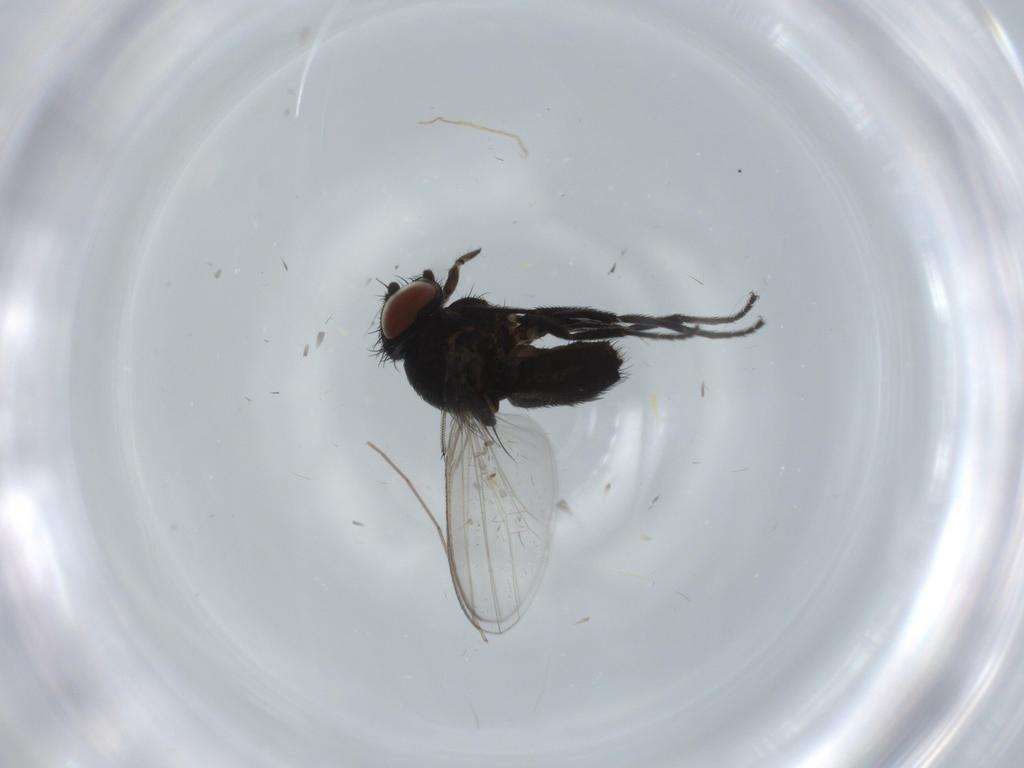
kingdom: Animalia
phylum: Arthropoda
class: Insecta
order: Diptera
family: Milichiidae
